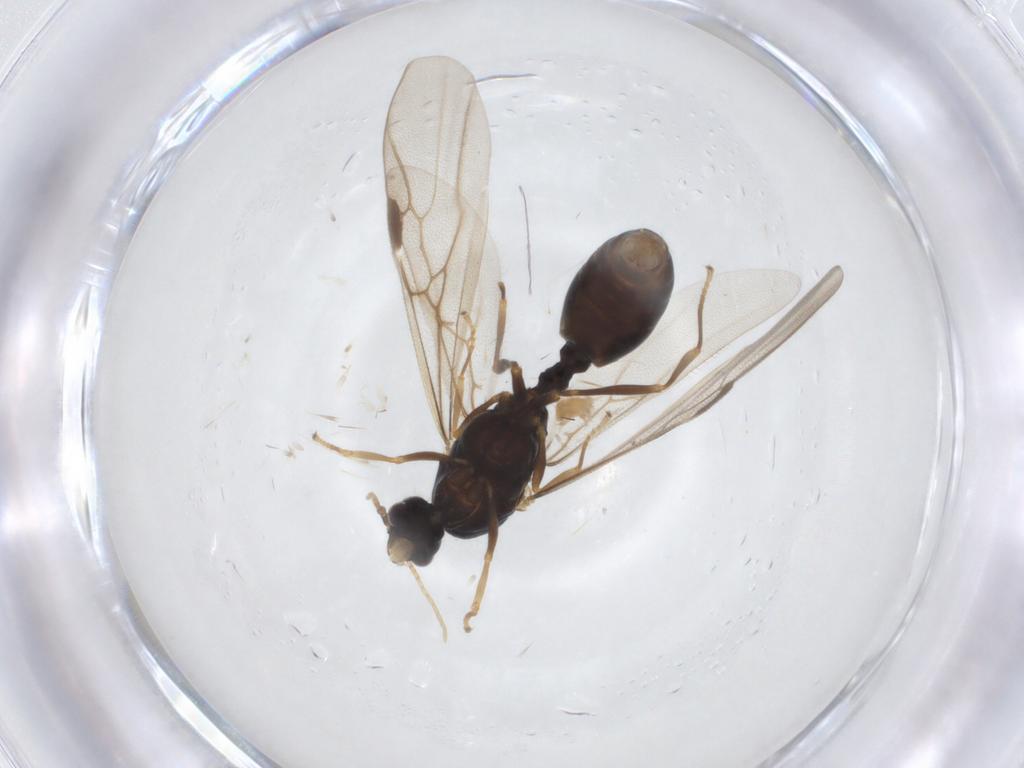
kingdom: Animalia
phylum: Arthropoda
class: Insecta
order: Hymenoptera
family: Formicidae
